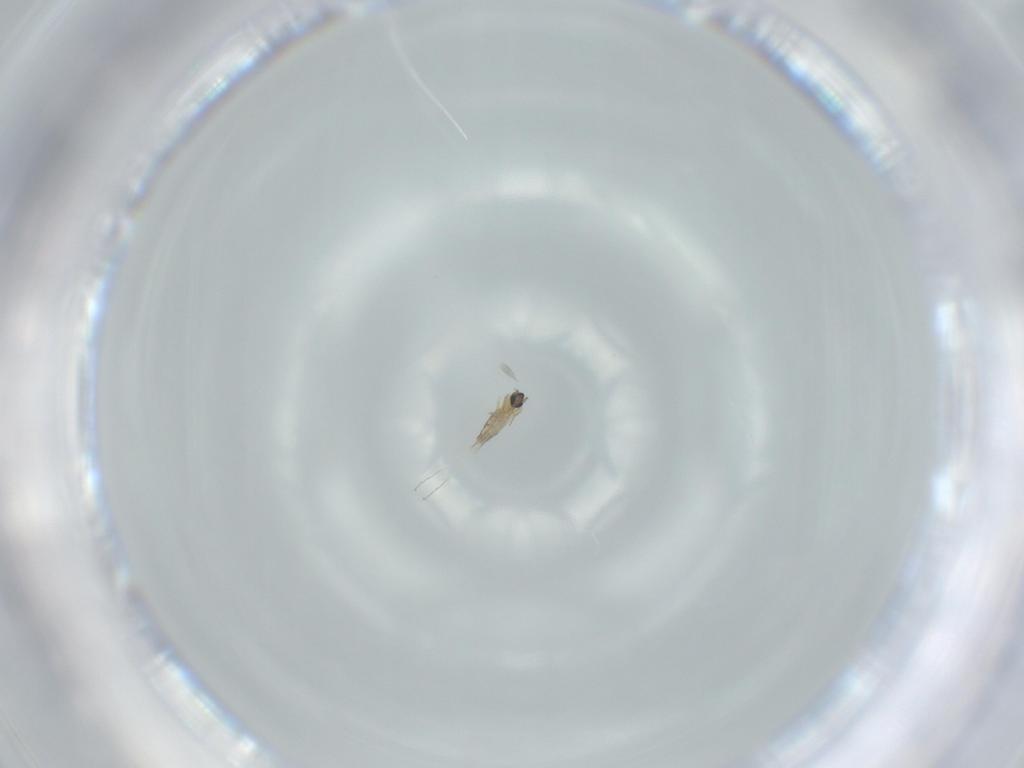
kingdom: Animalia
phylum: Arthropoda
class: Insecta
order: Diptera
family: Cecidomyiidae
